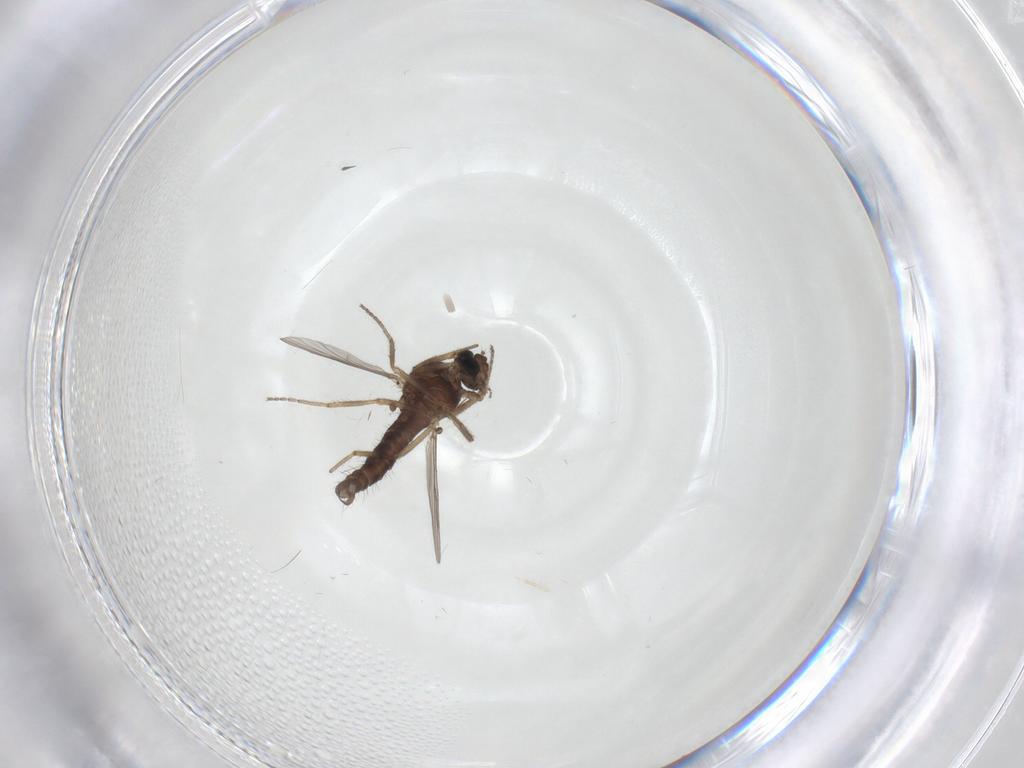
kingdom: Animalia
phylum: Arthropoda
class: Insecta
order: Diptera
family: Ceratopogonidae
